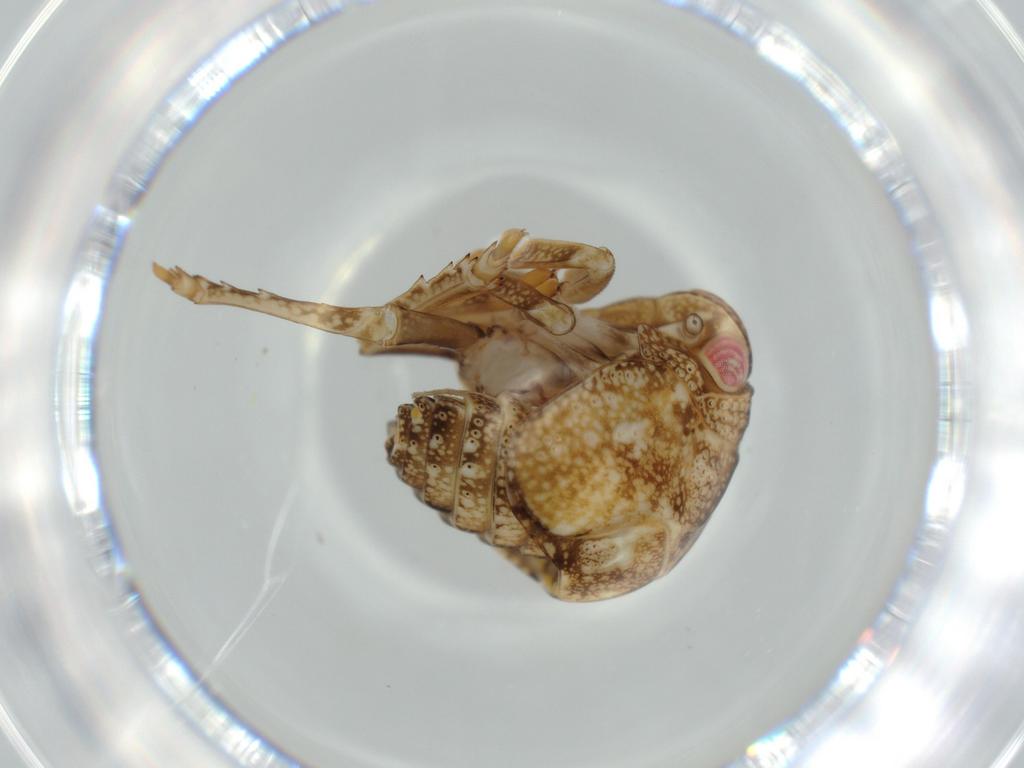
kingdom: Animalia
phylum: Arthropoda
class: Insecta
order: Hemiptera
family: Acanaloniidae
